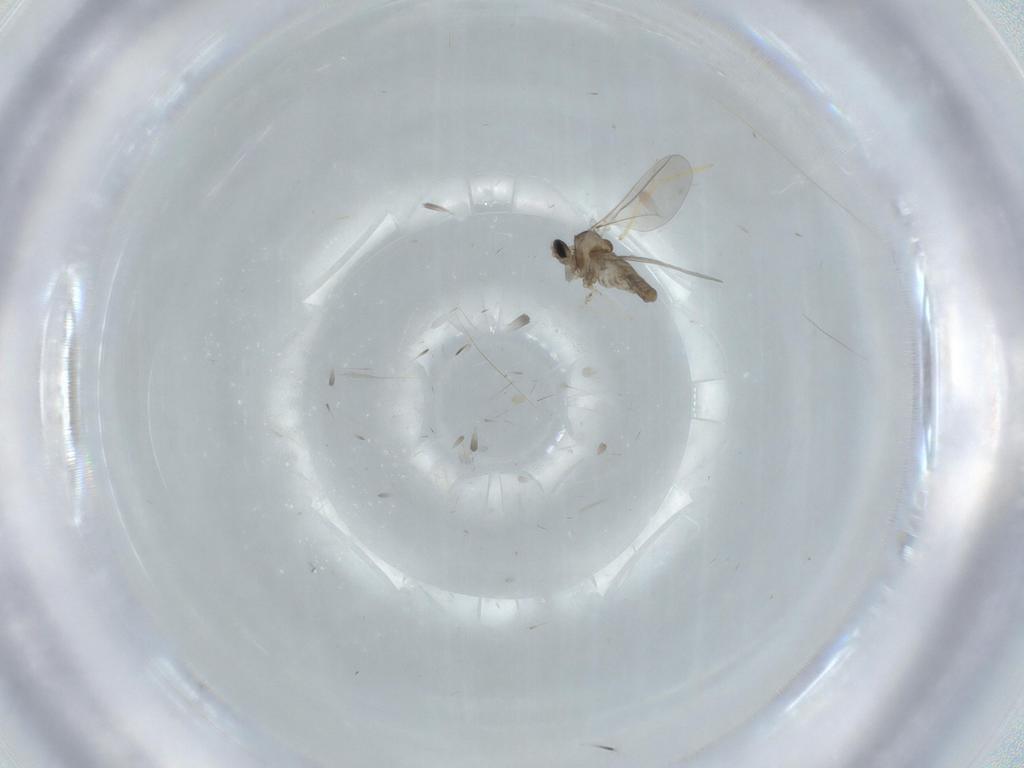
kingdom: Animalia
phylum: Arthropoda
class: Insecta
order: Diptera
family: Cecidomyiidae
